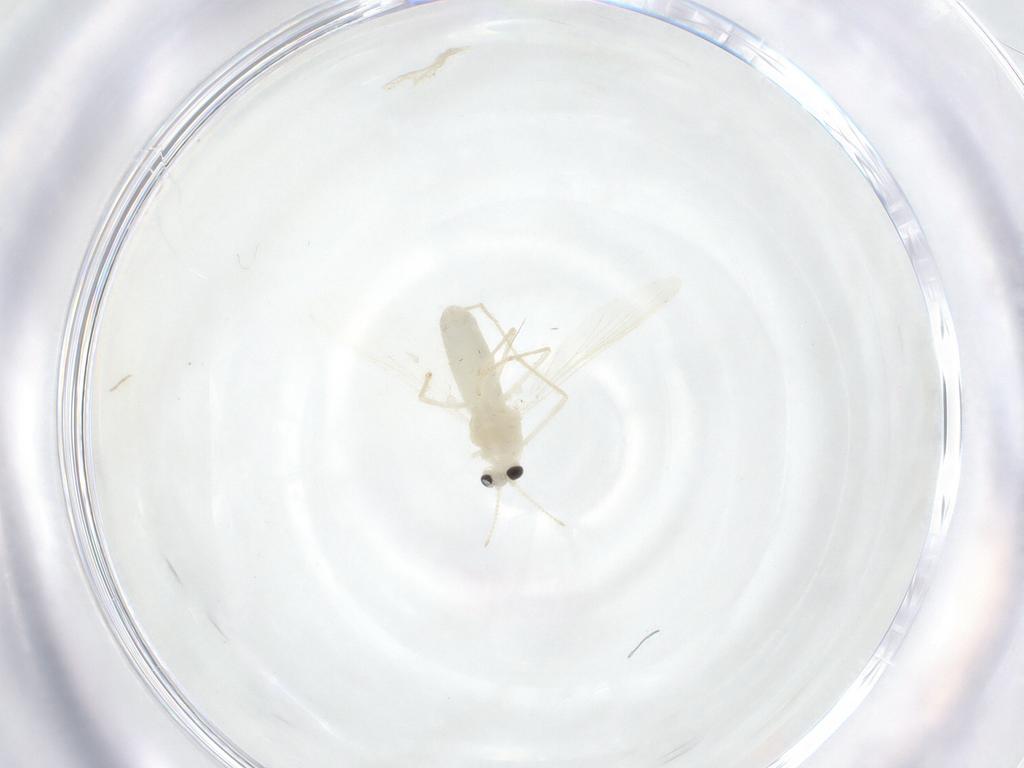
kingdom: Animalia
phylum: Arthropoda
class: Insecta
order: Diptera
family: Chironomidae
